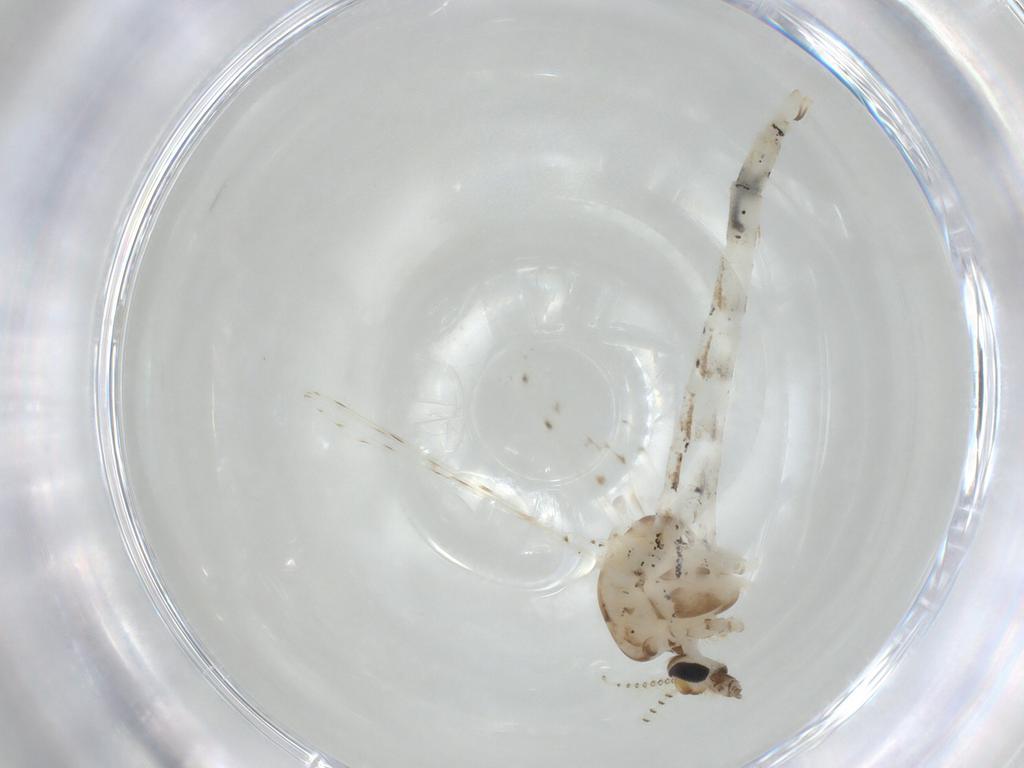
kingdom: Animalia
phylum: Arthropoda
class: Insecta
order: Diptera
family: Chaoboridae
